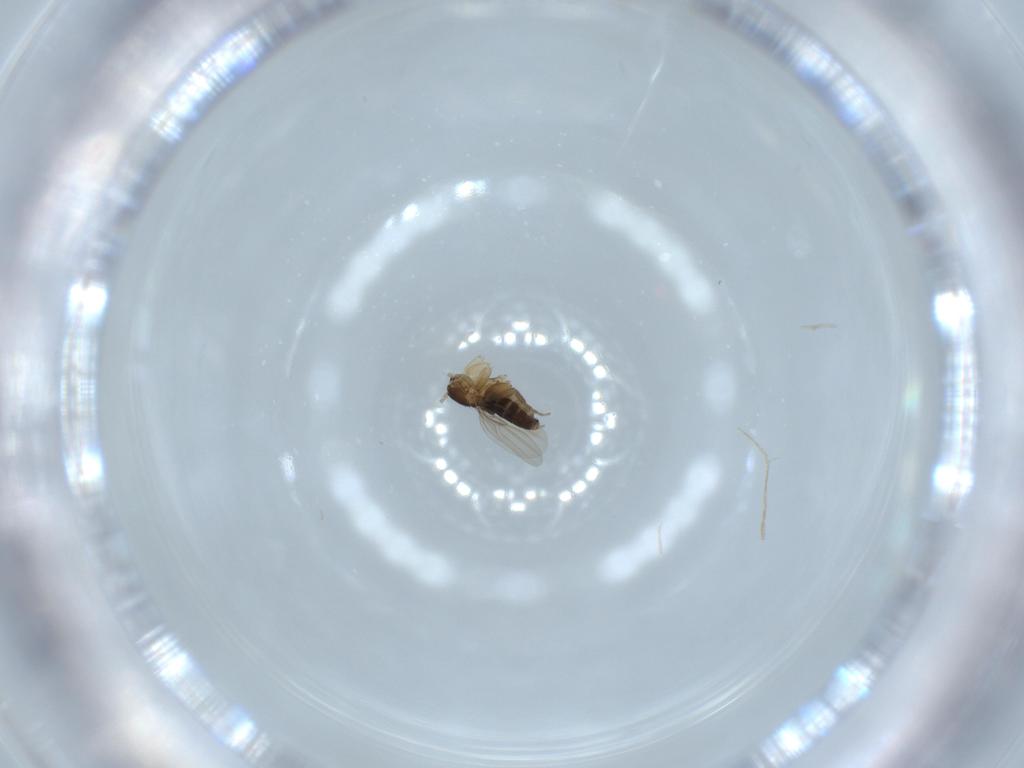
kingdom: Animalia
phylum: Arthropoda
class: Insecta
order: Diptera
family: Phoridae
